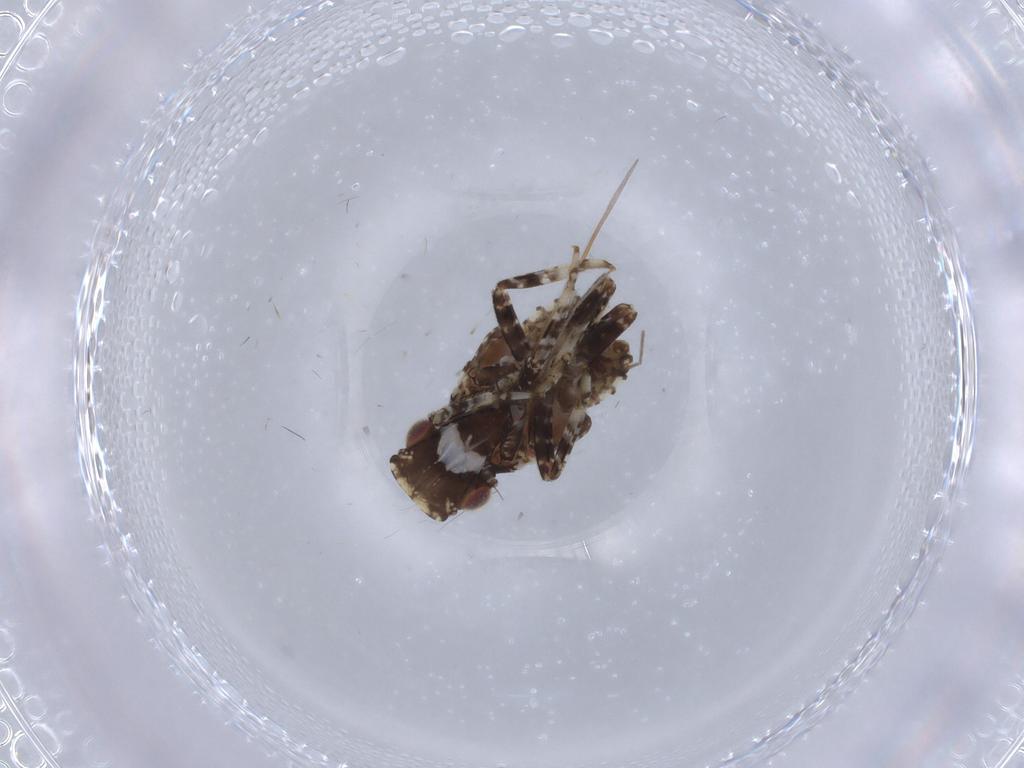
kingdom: Animalia
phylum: Arthropoda
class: Insecta
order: Hemiptera
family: Fulgoridae
